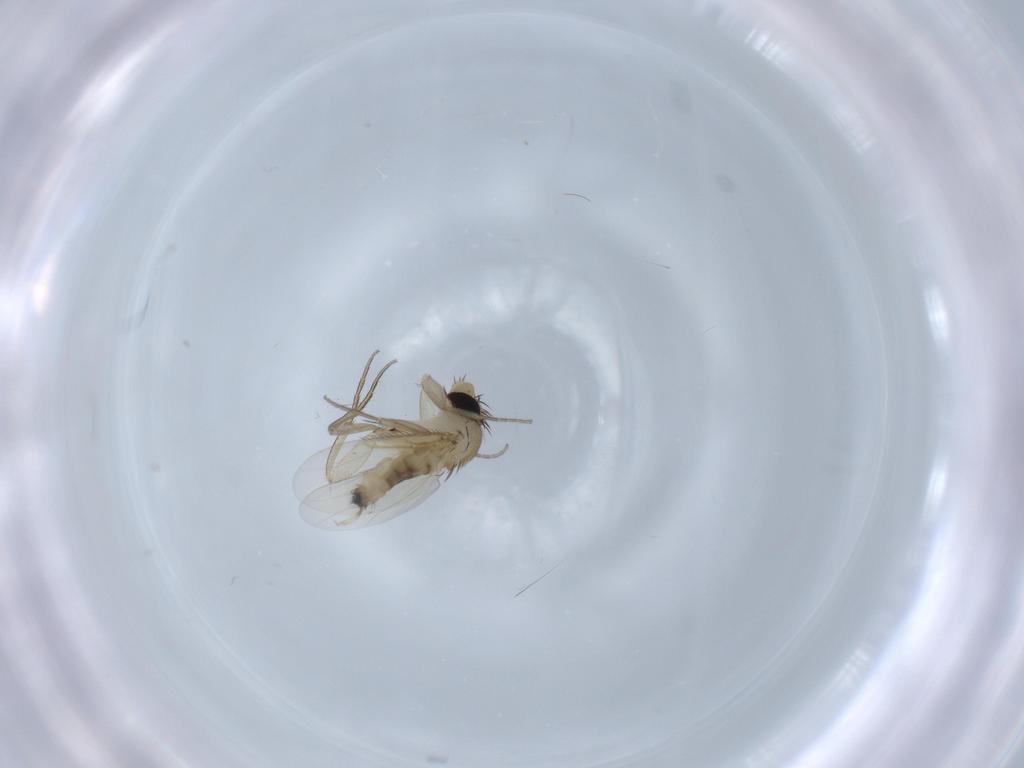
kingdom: Animalia
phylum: Arthropoda
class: Insecta
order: Diptera
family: Phoridae
